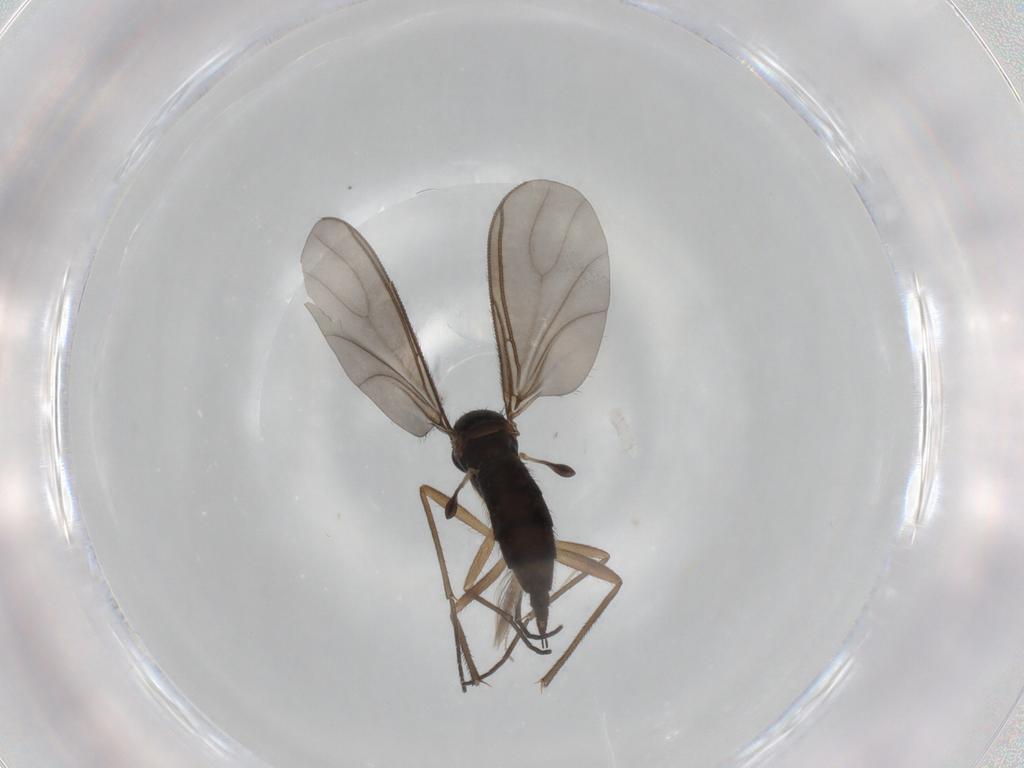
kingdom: Animalia
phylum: Arthropoda
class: Insecta
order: Diptera
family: Sciaridae
